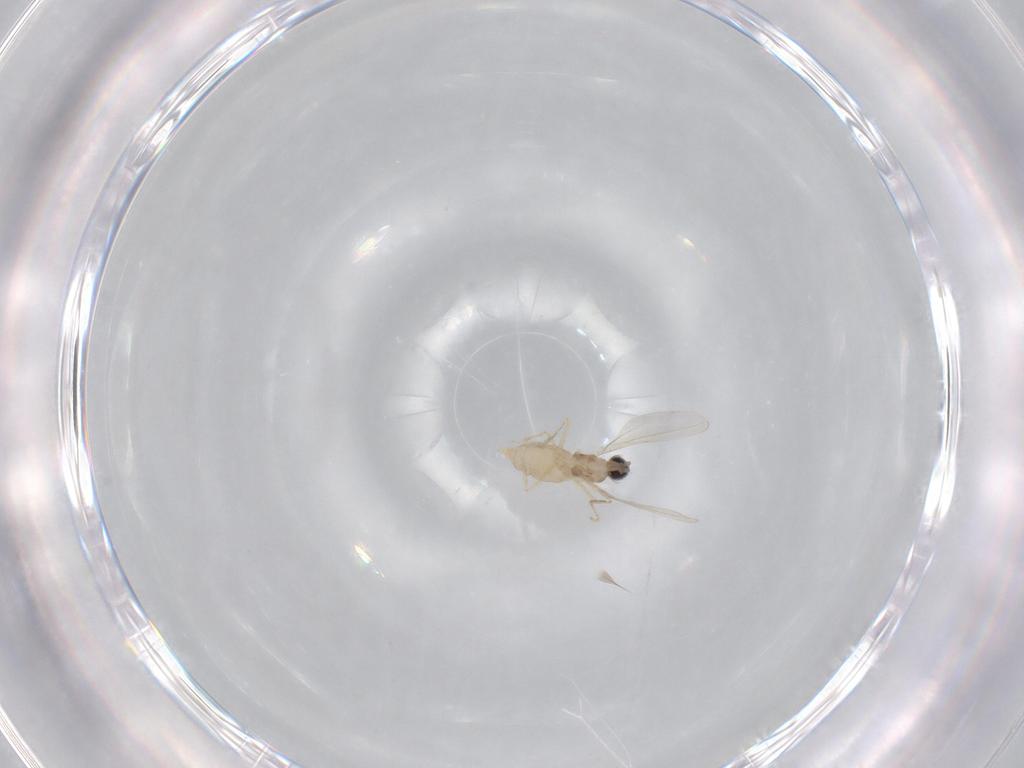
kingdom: Animalia
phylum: Arthropoda
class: Insecta
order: Diptera
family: Cecidomyiidae
